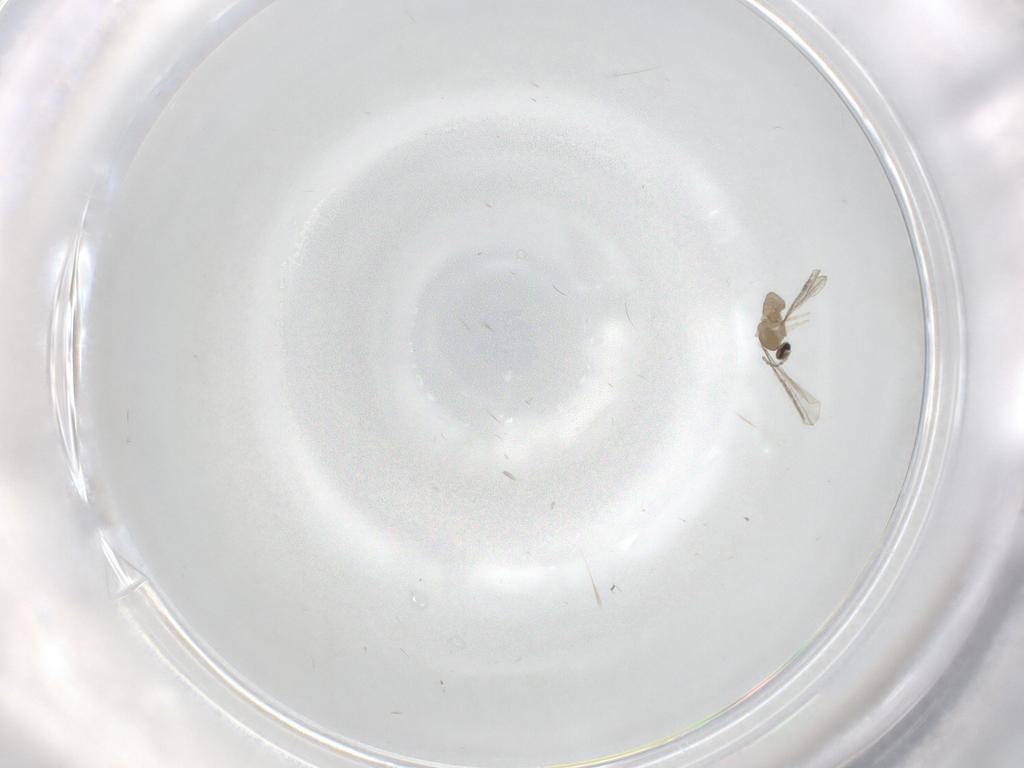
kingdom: Animalia
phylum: Arthropoda
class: Insecta
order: Diptera
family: Cecidomyiidae
